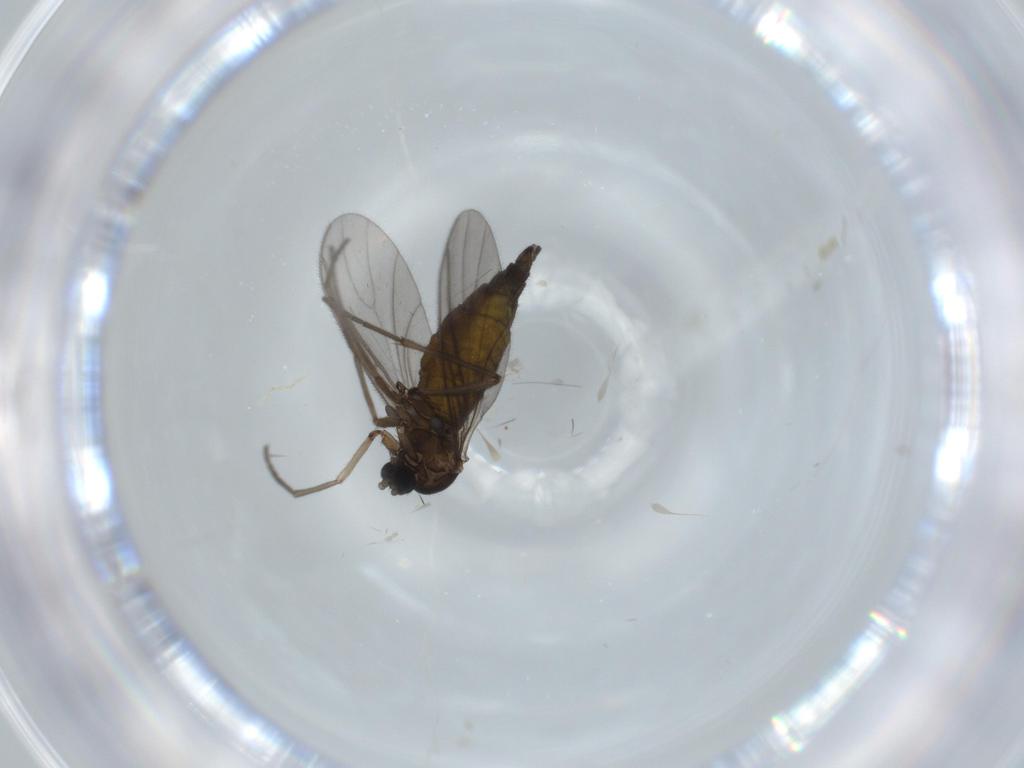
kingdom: Animalia
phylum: Arthropoda
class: Insecta
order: Diptera
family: Sciaridae
